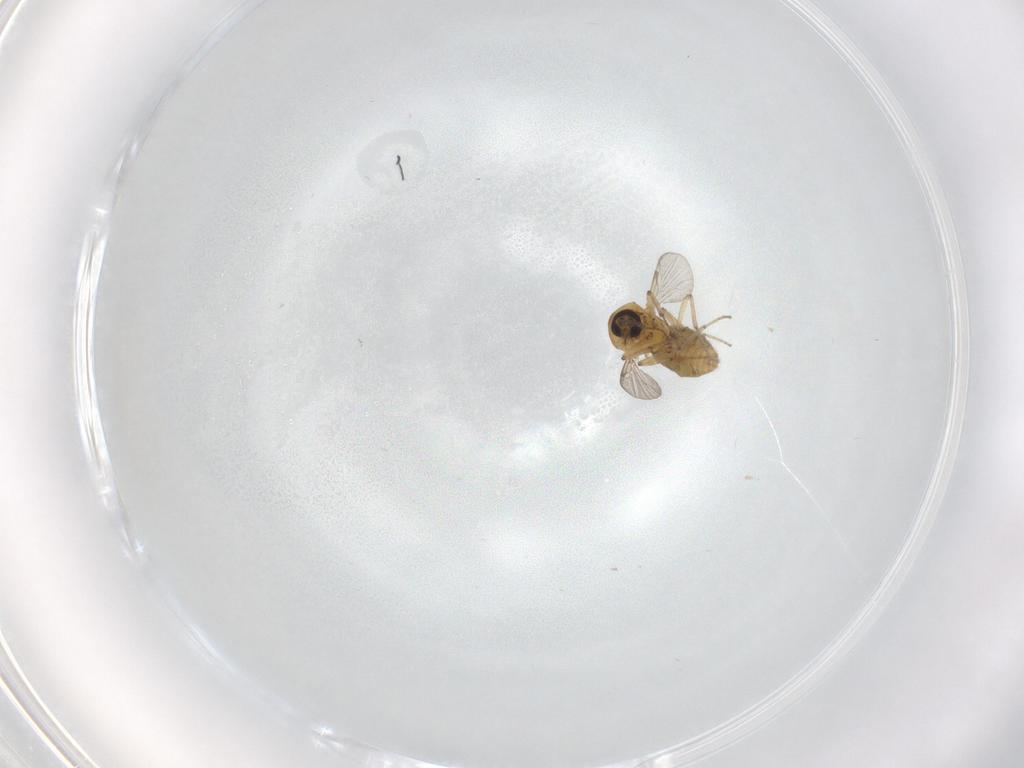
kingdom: Animalia
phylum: Arthropoda
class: Insecta
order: Diptera
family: Ceratopogonidae
